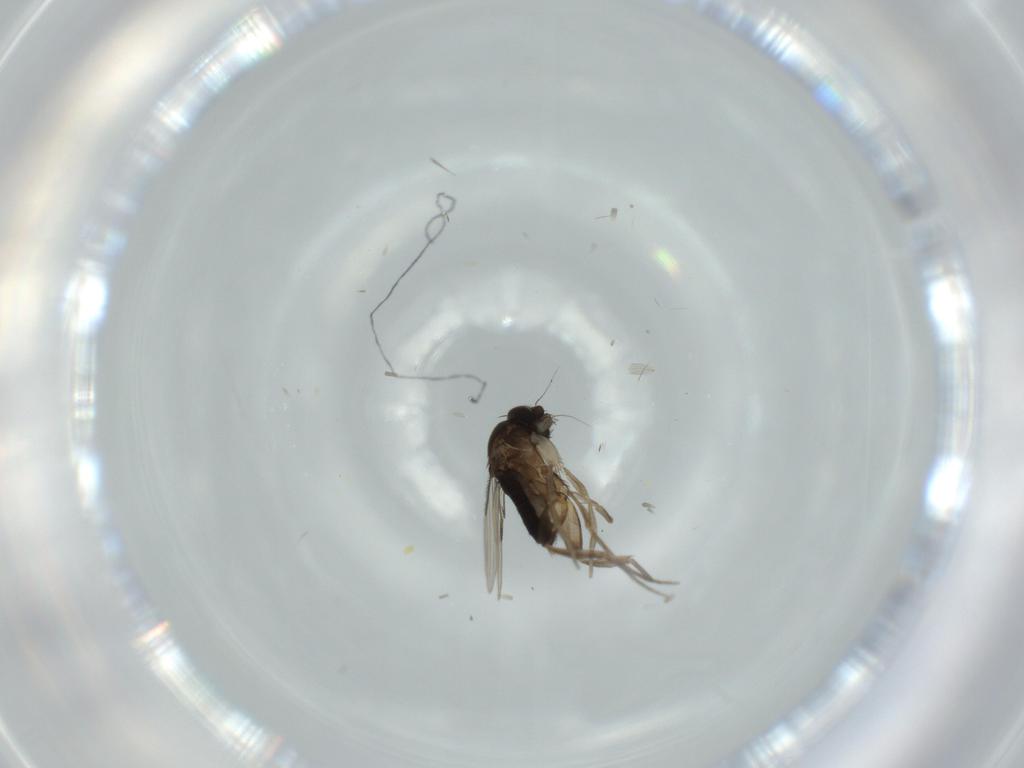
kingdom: Animalia
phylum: Arthropoda
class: Insecta
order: Diptera
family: Phoridae
